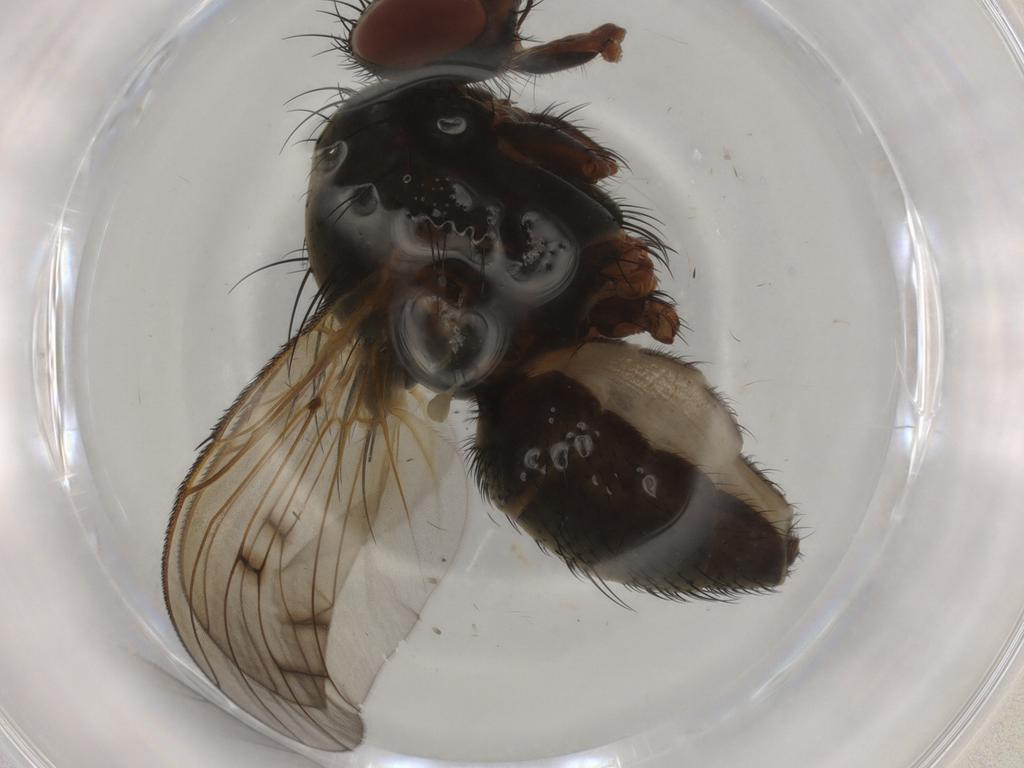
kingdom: Animalia
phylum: Arthropoda
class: Insecta
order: Diptera
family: Anthomyiidae
